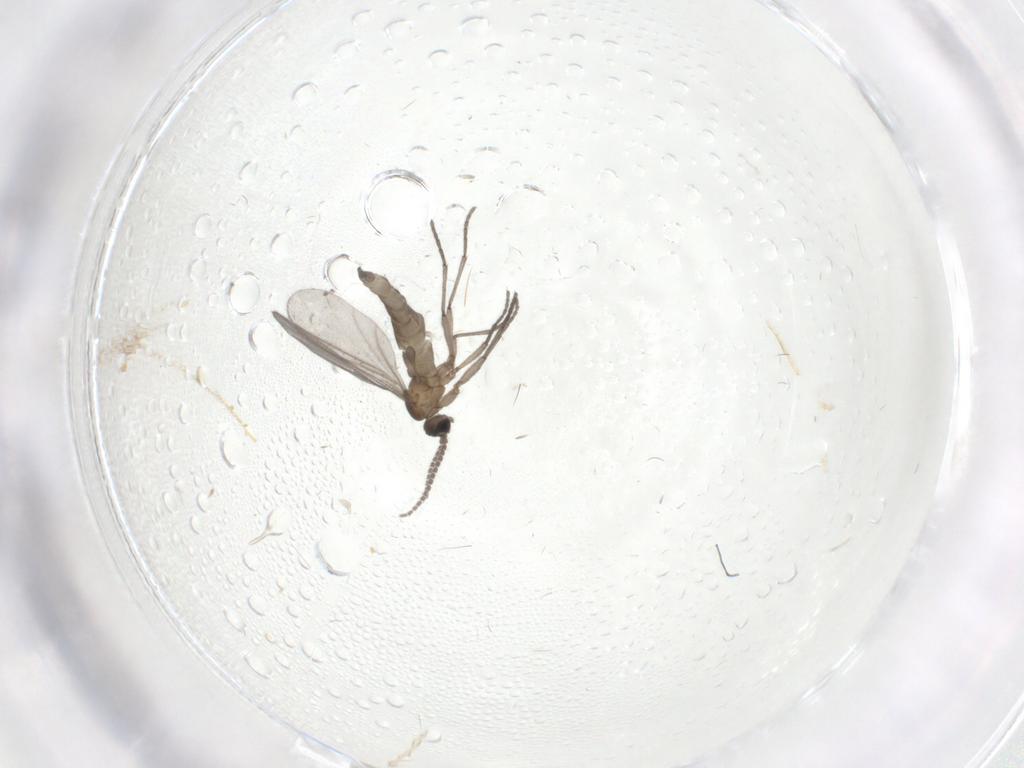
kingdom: Animalia
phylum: Arthropoda
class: Insecta
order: Diptera
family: Sciaridae
